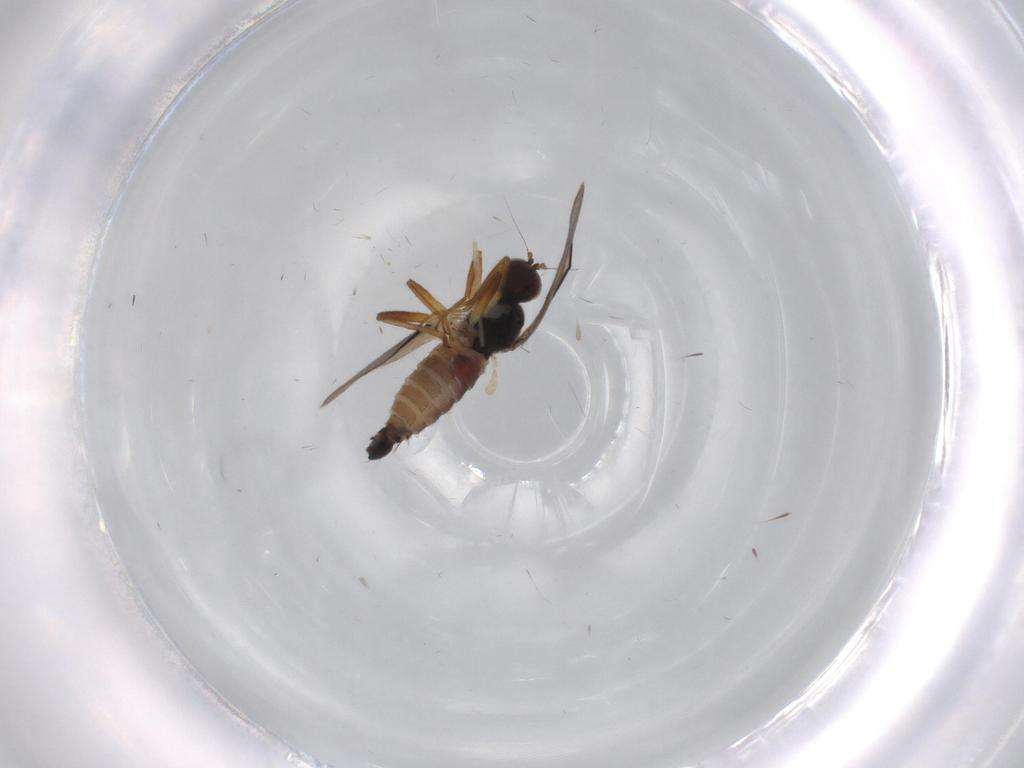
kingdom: Animalia
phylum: Arthropoda
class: Insecta
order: Diptera
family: Hybotidae
